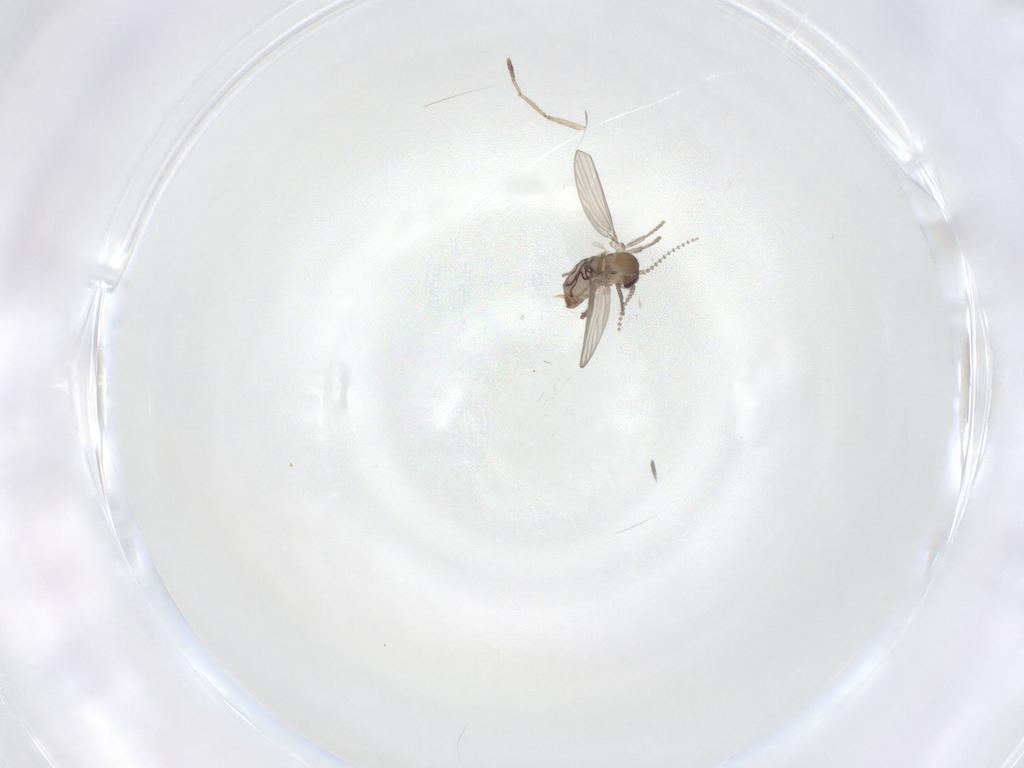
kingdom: Animalia
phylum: Arthropoda
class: Insecta
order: Diptera
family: Psychodidae
